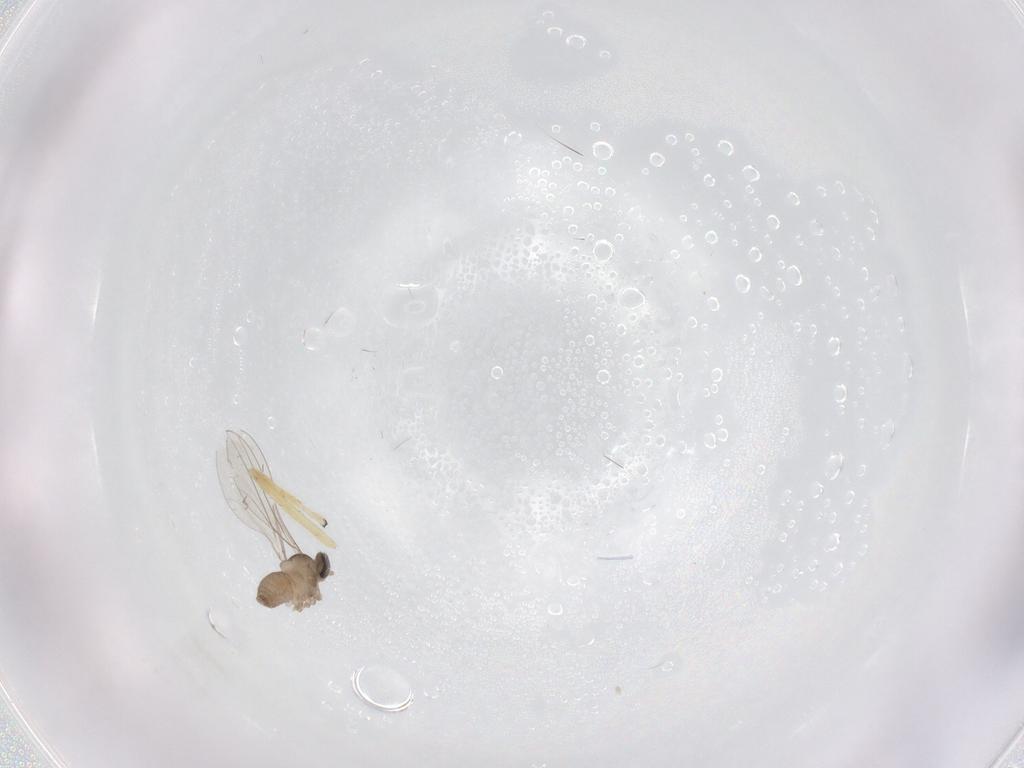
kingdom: Animalia
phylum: Arthropoda
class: Insecta
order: Diptera
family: Cecidomyiidae
